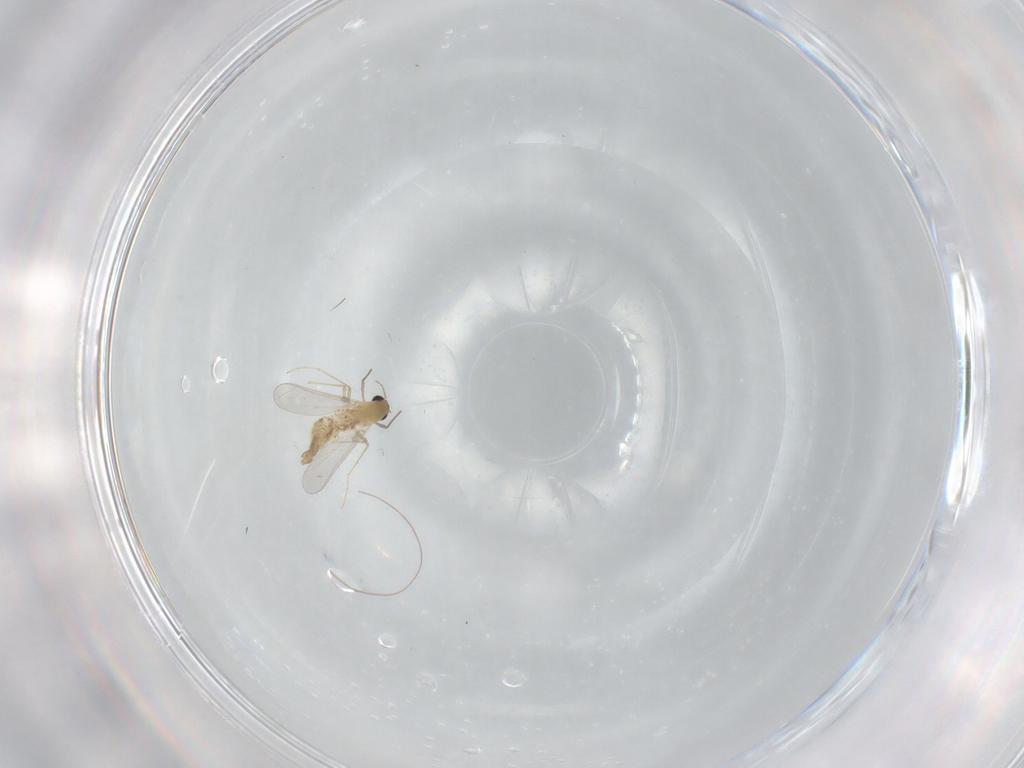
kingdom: Animalia
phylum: Arthropoda
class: Insecta
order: Diptera
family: Chironomidae
